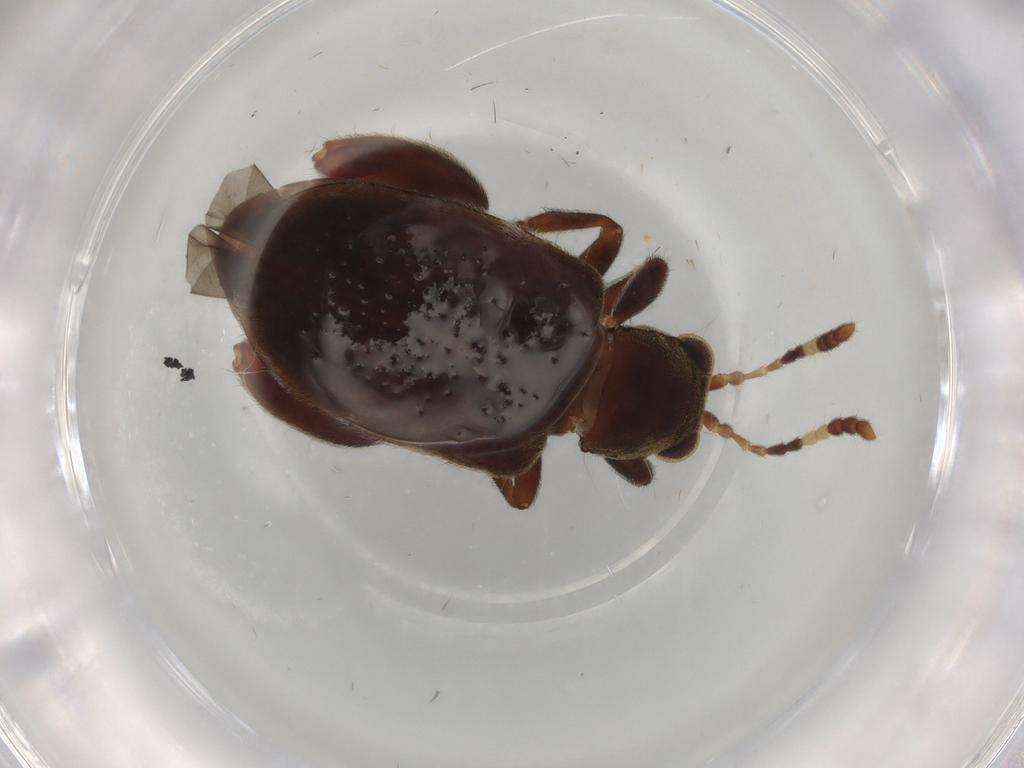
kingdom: Animalia
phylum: Arthropoda
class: Insecta
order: Coleoptera
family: Chrysomelidae
